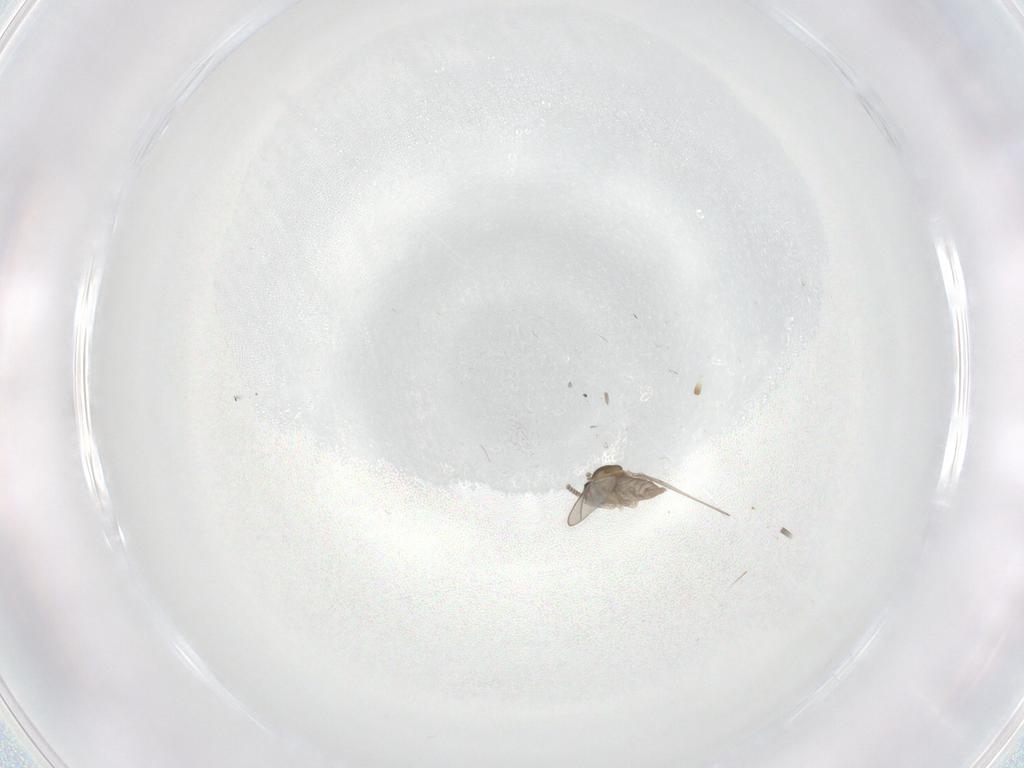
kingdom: Animalia
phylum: Arthropoda
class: Insecta
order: Diptera
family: Cecidomyiidae
